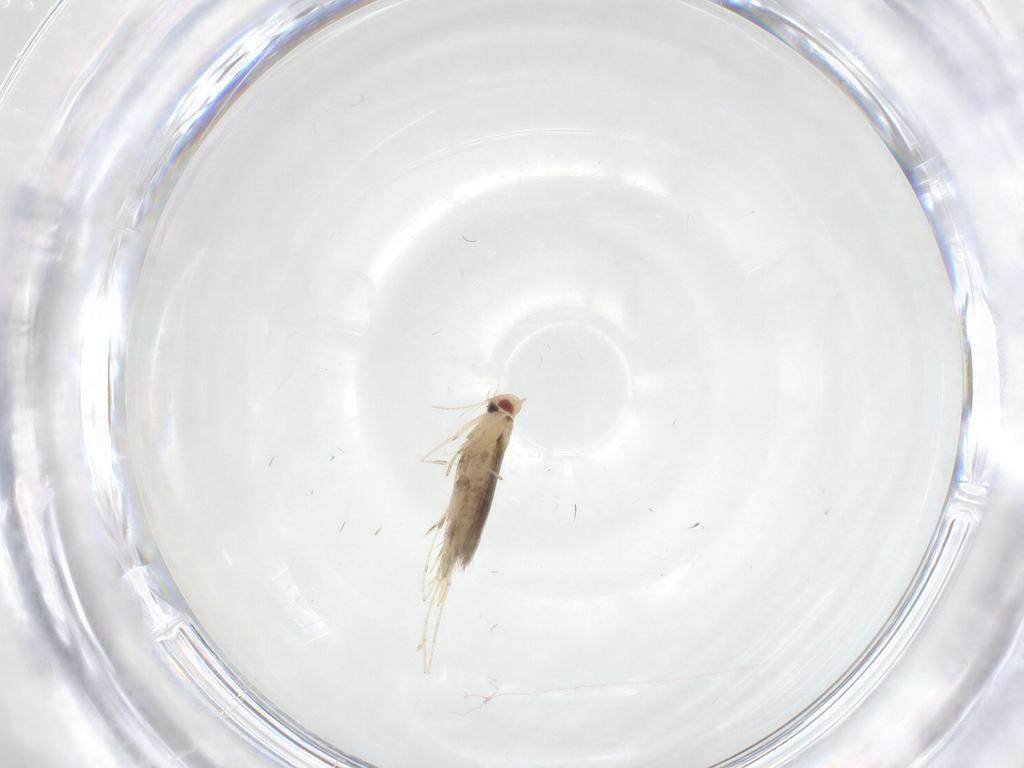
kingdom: Animalia
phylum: Arthropoda
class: Insecta
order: Lepidoptera
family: Gracillariidae
